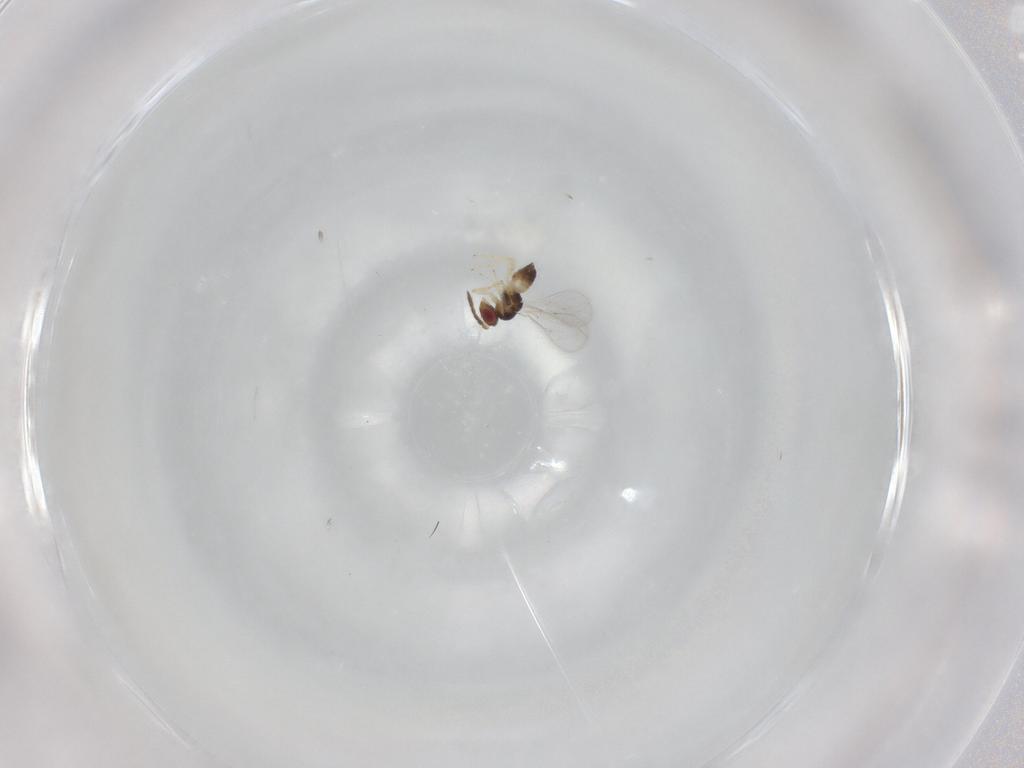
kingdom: Animalia
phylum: Arthropoda
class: Insecta
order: Hymenoptera
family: Eulophidae
